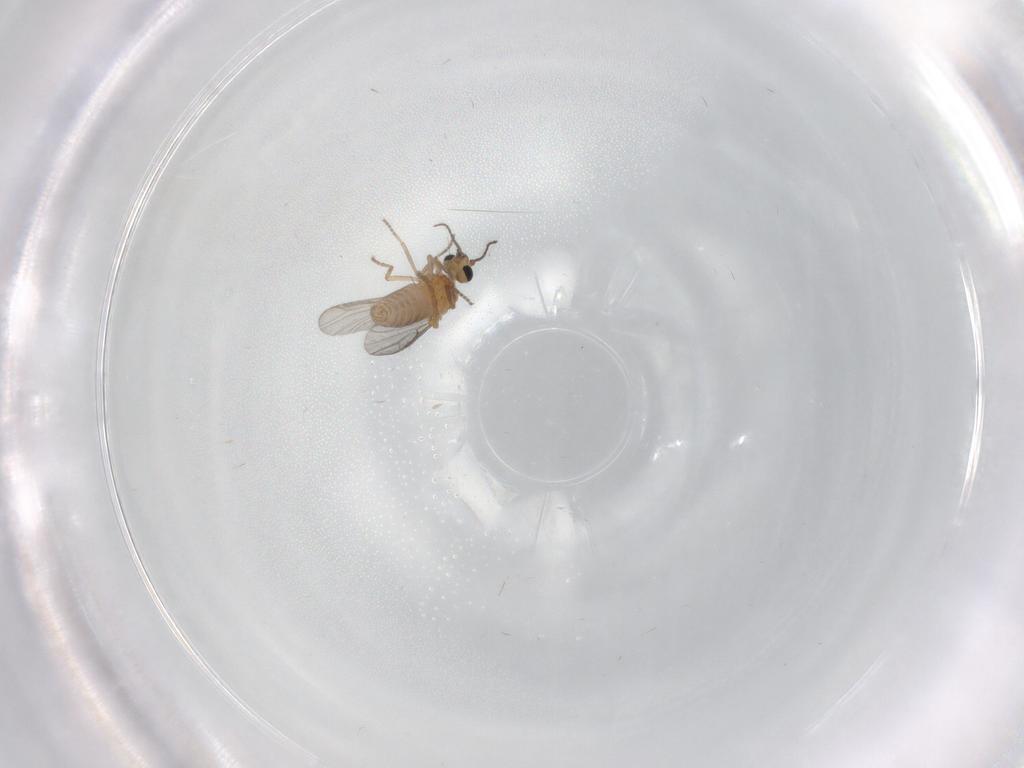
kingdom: Animalia
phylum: Arthropoda
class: Insecta
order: Diptera
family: Ceratopogonidae
